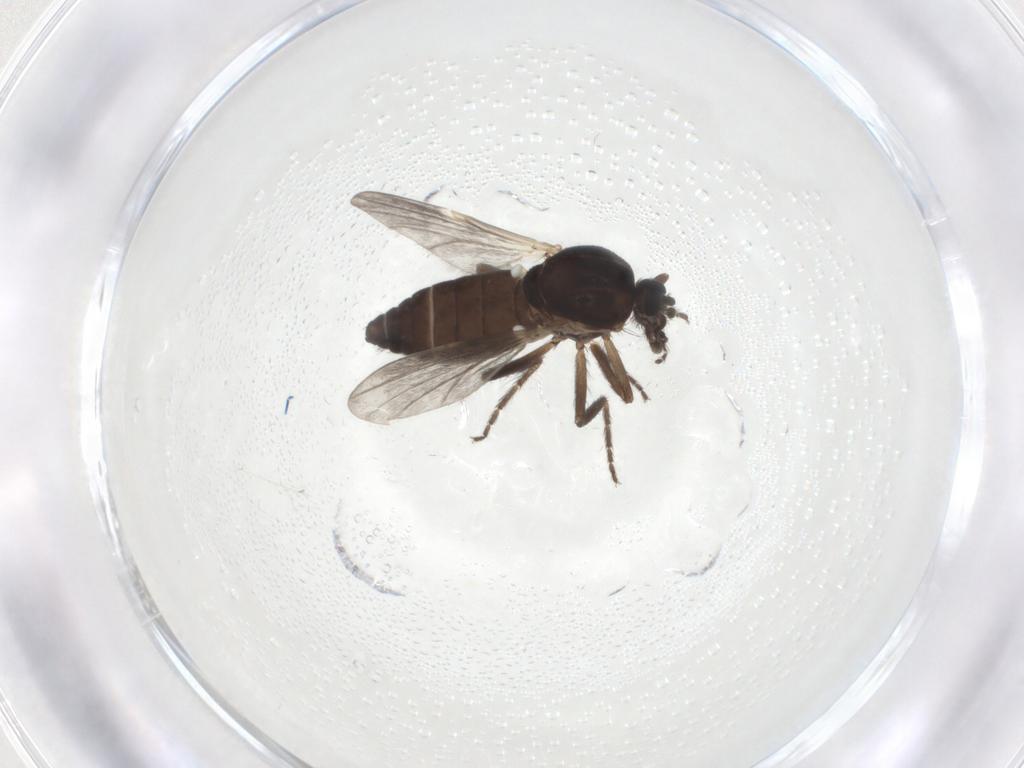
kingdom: Animalia
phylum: Arthropoda
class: Insecta
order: Diptera
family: Ceratopogonidae
